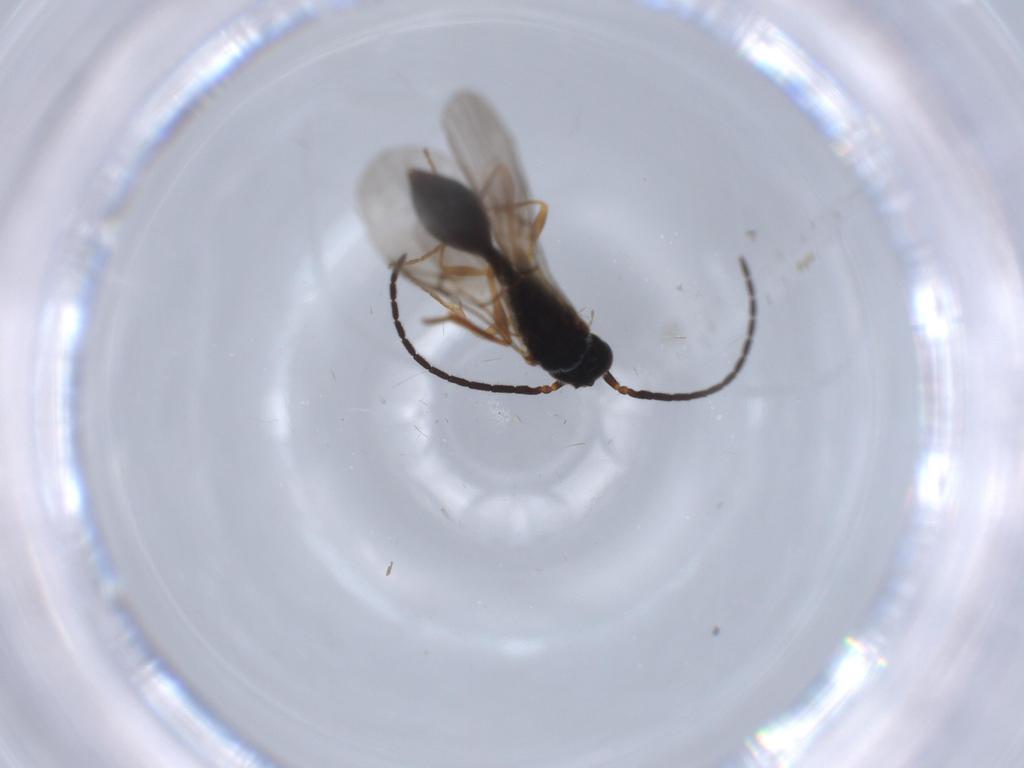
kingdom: Animalia
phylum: Arthropoda
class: Insecta
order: Hymenoptera
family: Diapriidae
